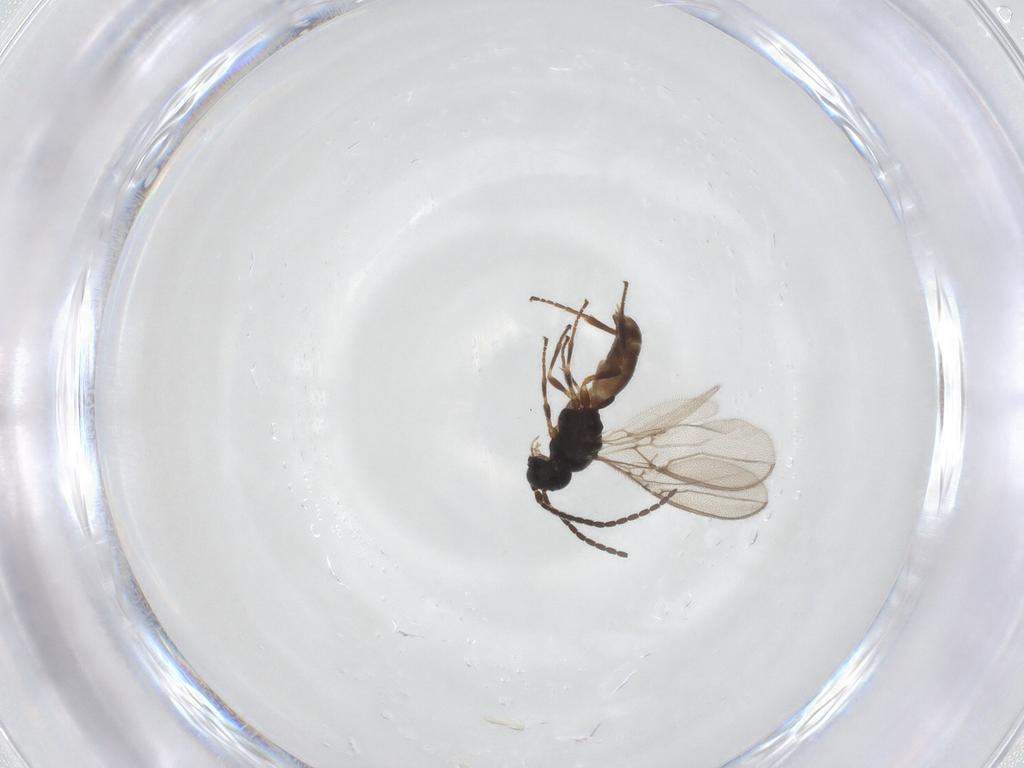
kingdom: Animalia
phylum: Arthropoda
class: Insecta
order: Hymenoptera
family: Braconidae
